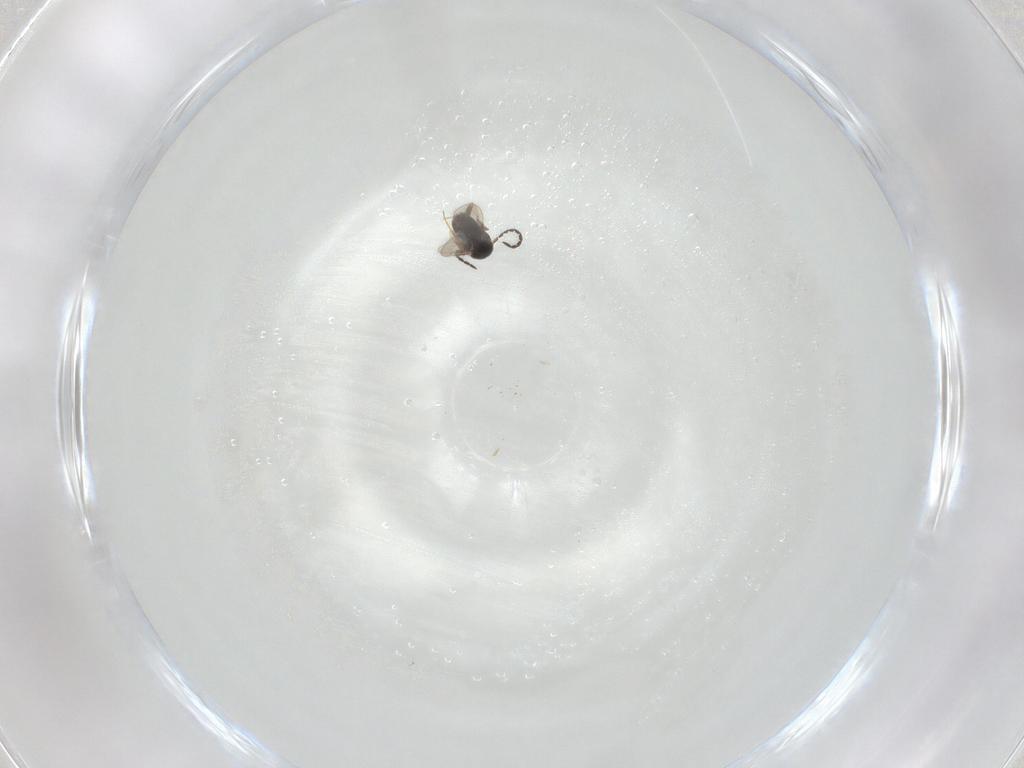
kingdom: Animalia
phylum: Arthropoda
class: Insecta
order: Hymenoptera
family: Ceraphronidae
